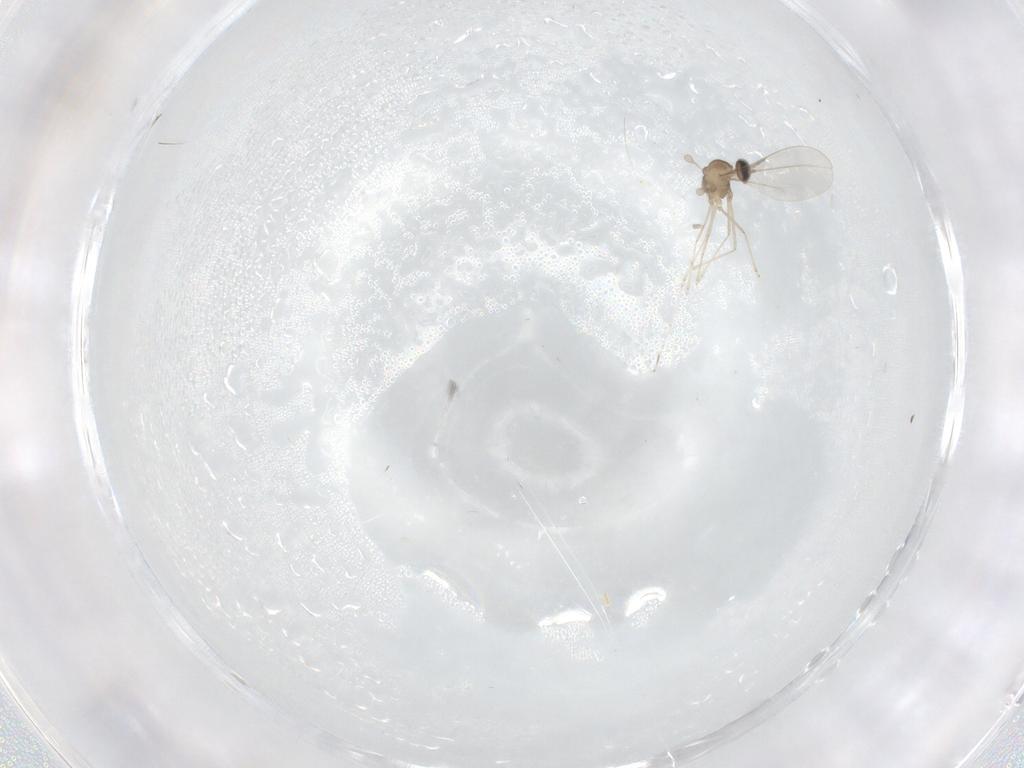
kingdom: Animalia
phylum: Arthropoda
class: Insecta
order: Diptera
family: Cecidomyiidae
